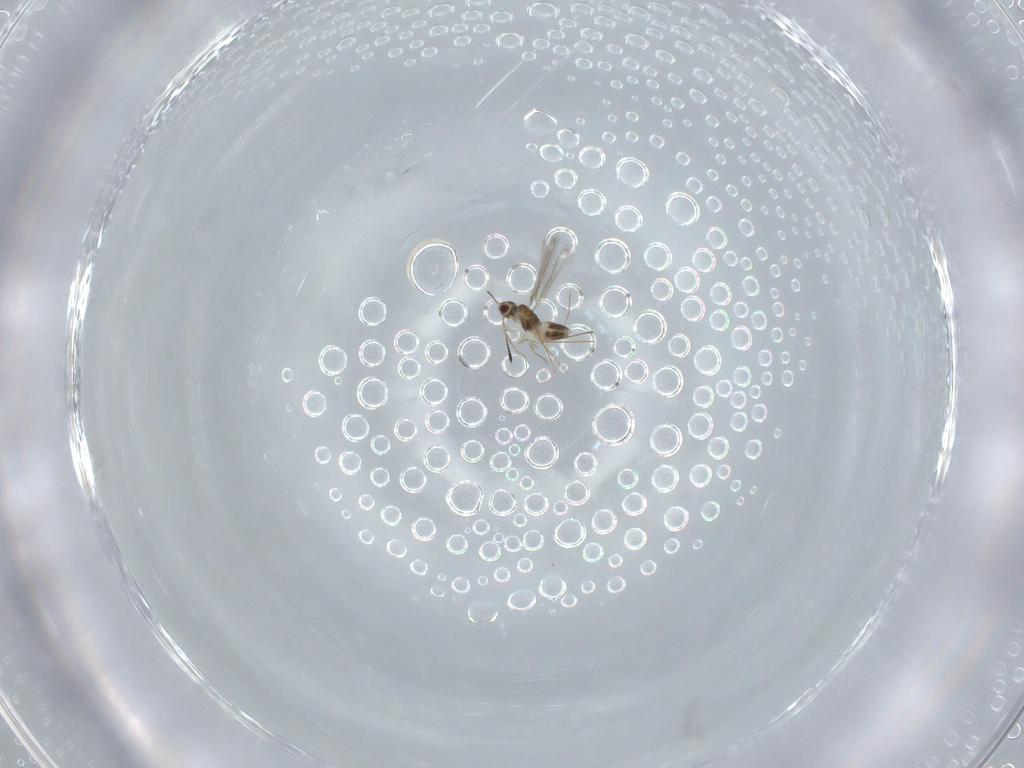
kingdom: Animalia
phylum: Arthropoda
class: Insecta
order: Hymenoptera
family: Mymaridae
